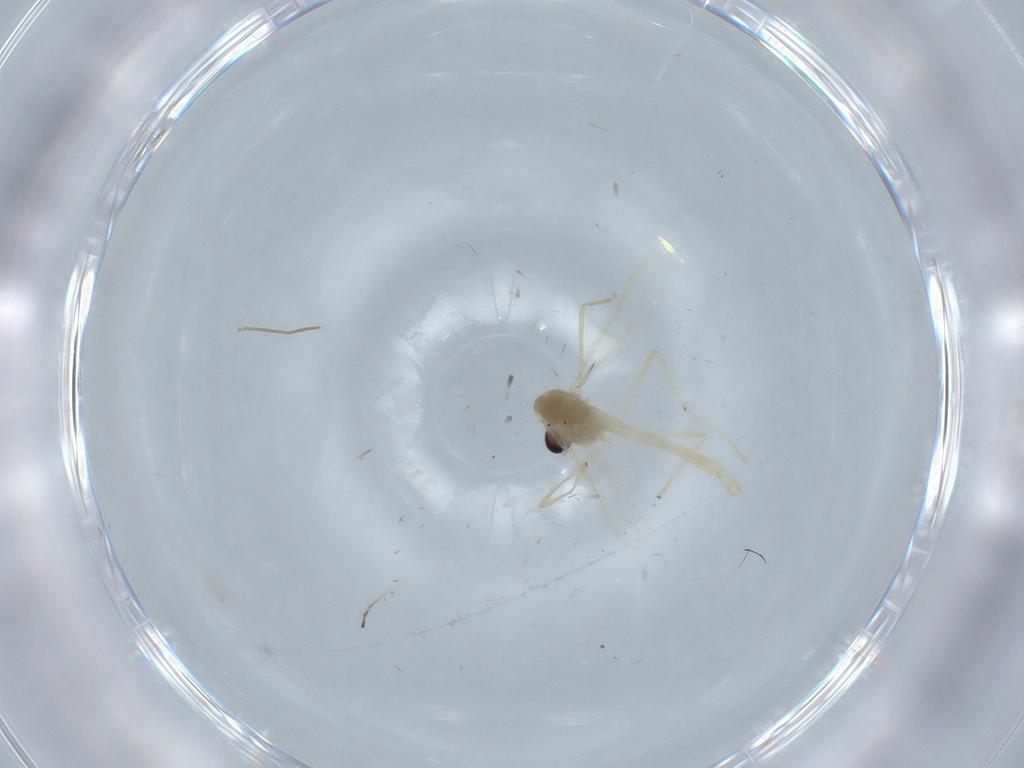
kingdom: Animalia
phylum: Arthropoda
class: Insecta
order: Diptera
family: Chironomidae
